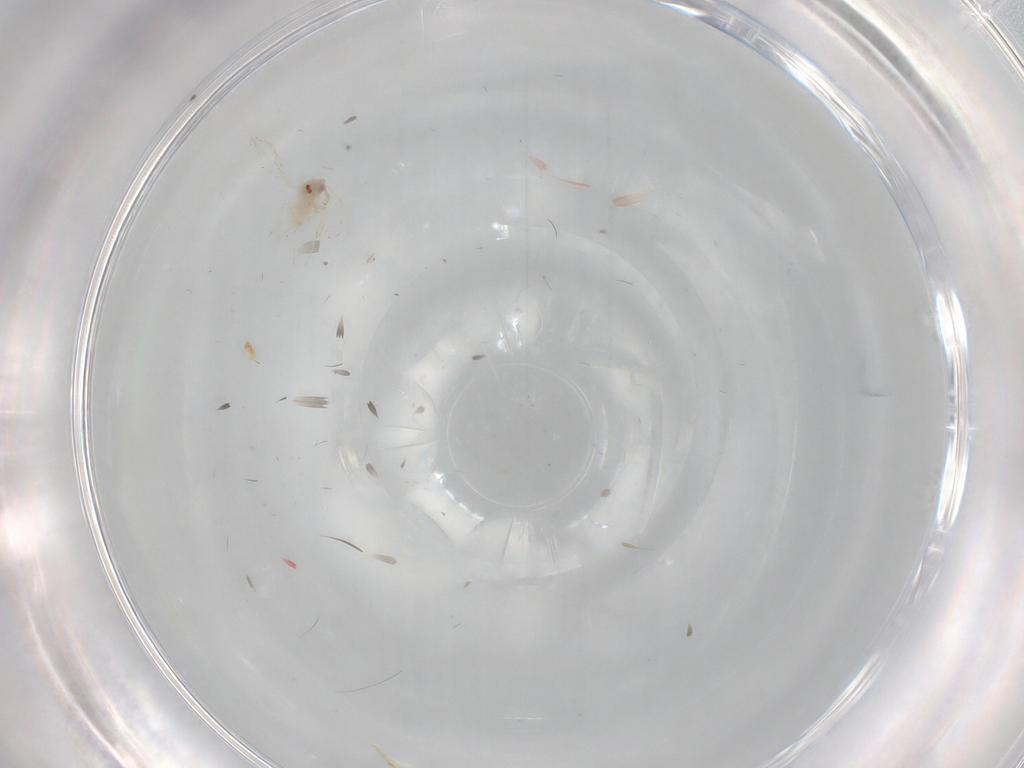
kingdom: Animalia
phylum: Arthropoda
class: Insecta
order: Hemiptera
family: Aleyrodidae
